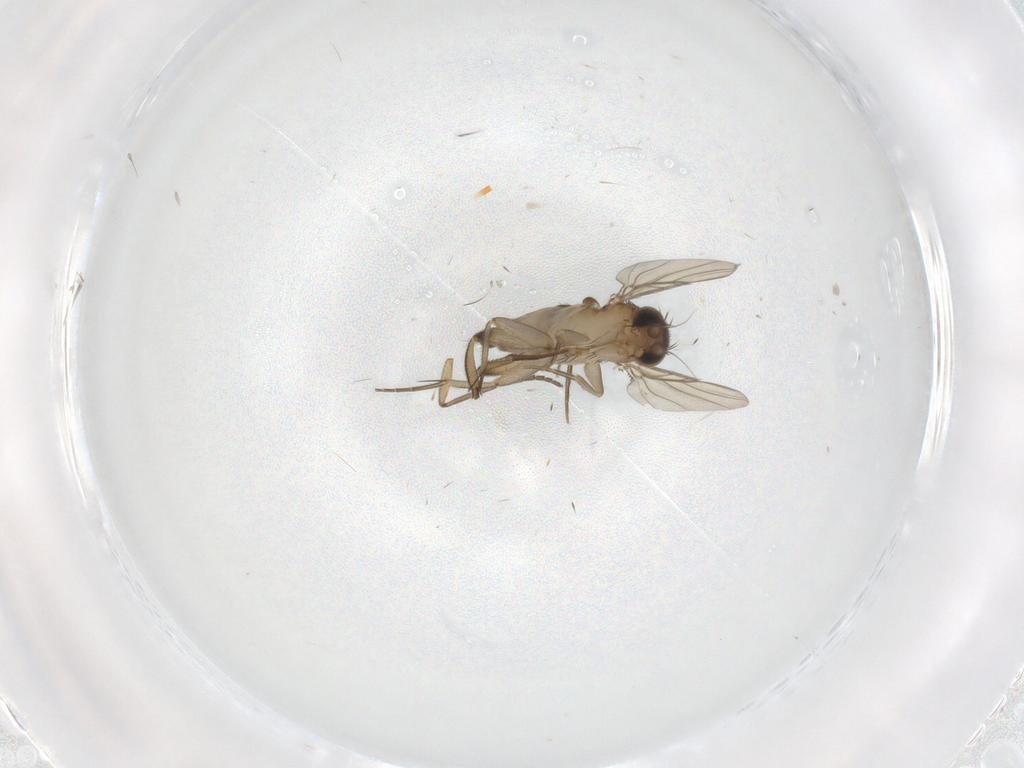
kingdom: Animalia
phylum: Arthropoda
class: Insecta
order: Diptera
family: Phoridae
